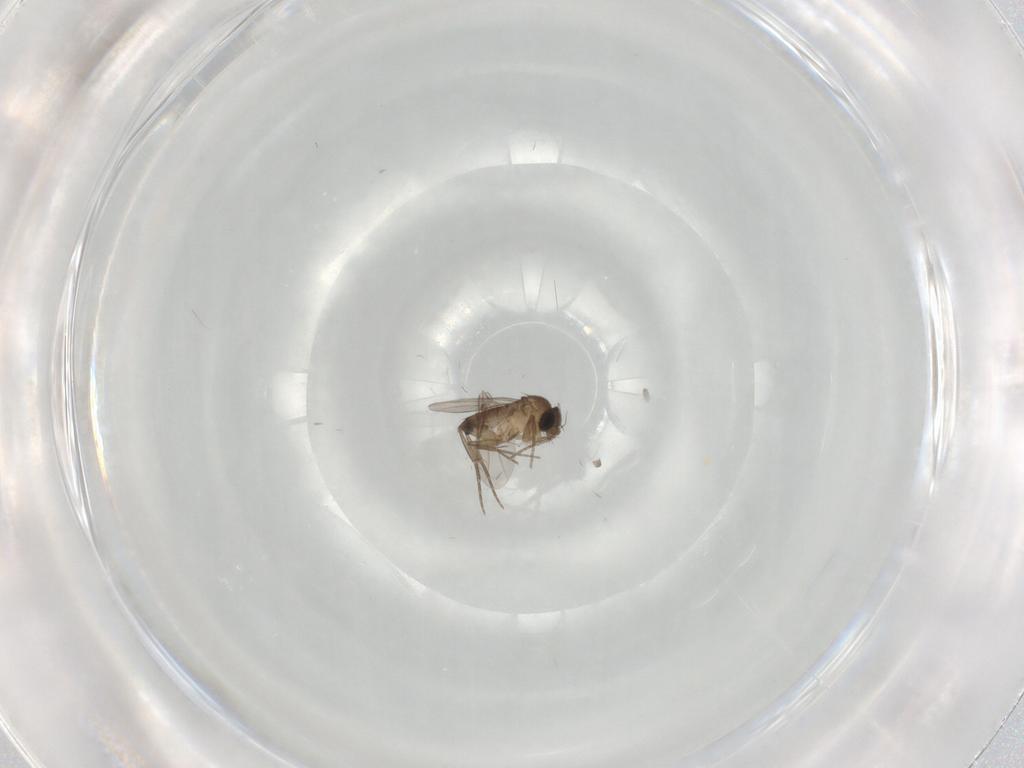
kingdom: Animalia
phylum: Arthropoda
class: Insecta
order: Diptera
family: Phoridae
